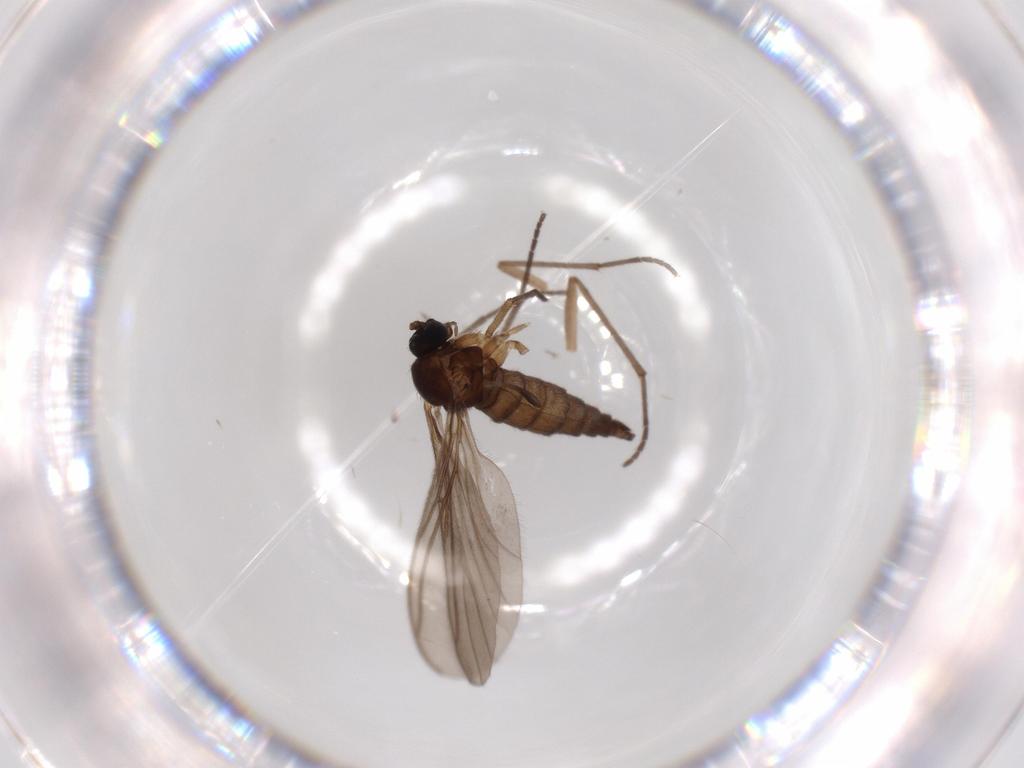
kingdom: Animalia
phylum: Arthropoda
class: Insecta
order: Diptera
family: Sciaridae
